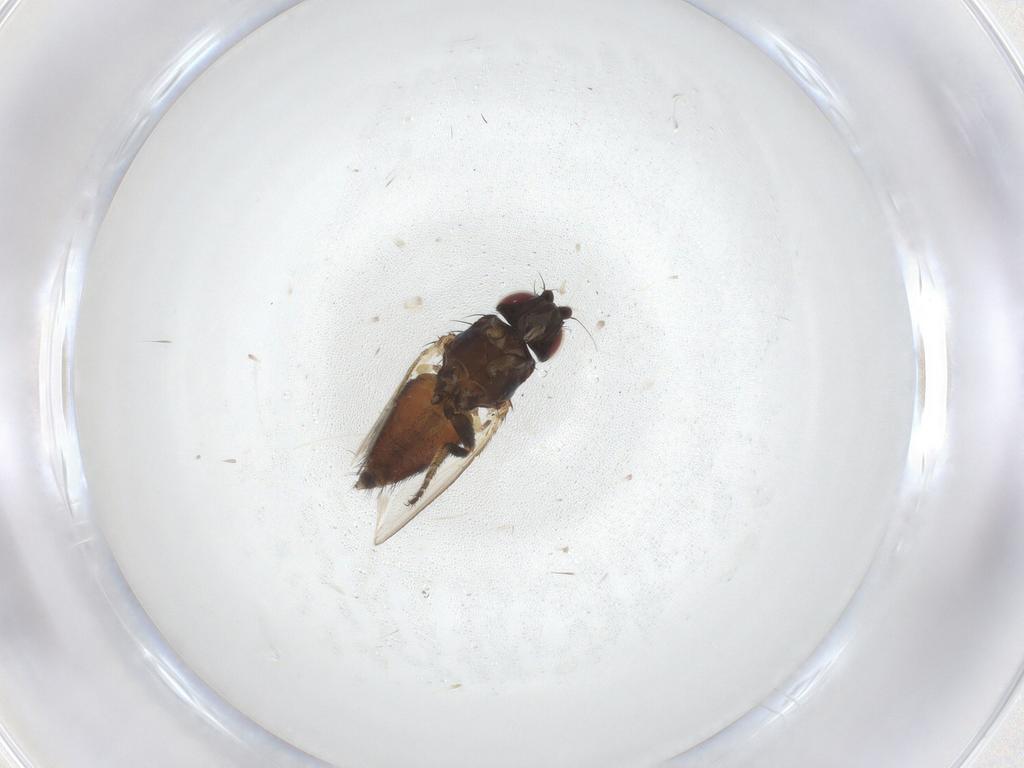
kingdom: Animalia
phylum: Arthropoda
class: Insecta
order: Diptera
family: Milichiidae
